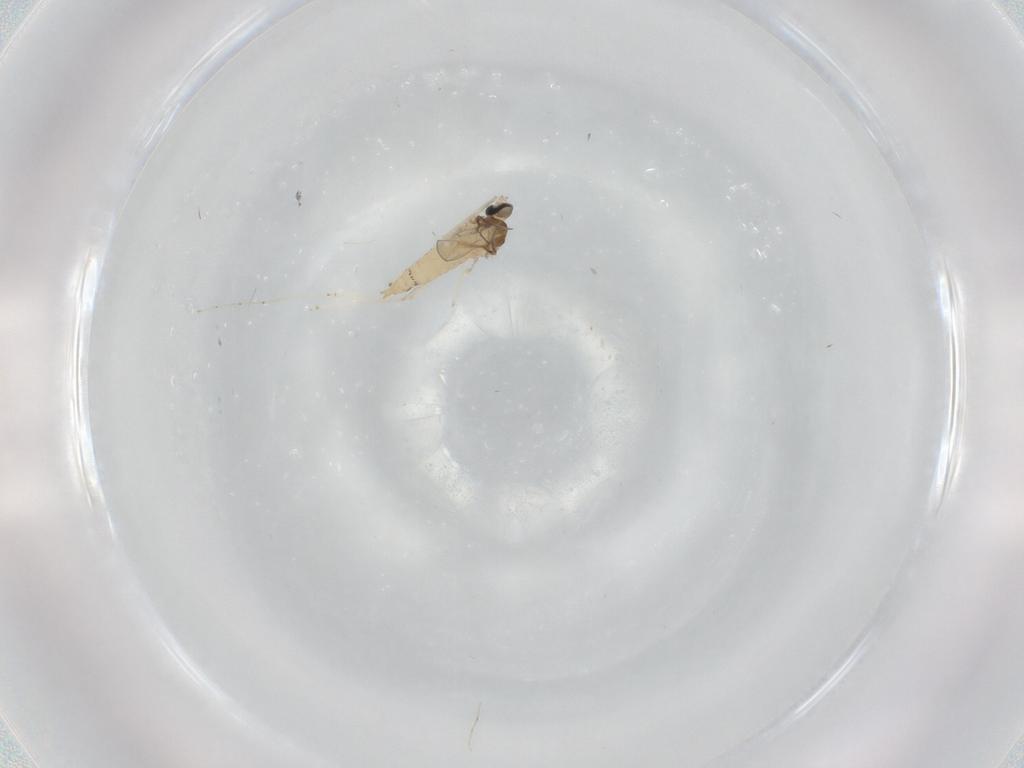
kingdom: Animalia
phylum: Arthropoda
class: Insecta
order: Diptera
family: Cecidomyiidae
